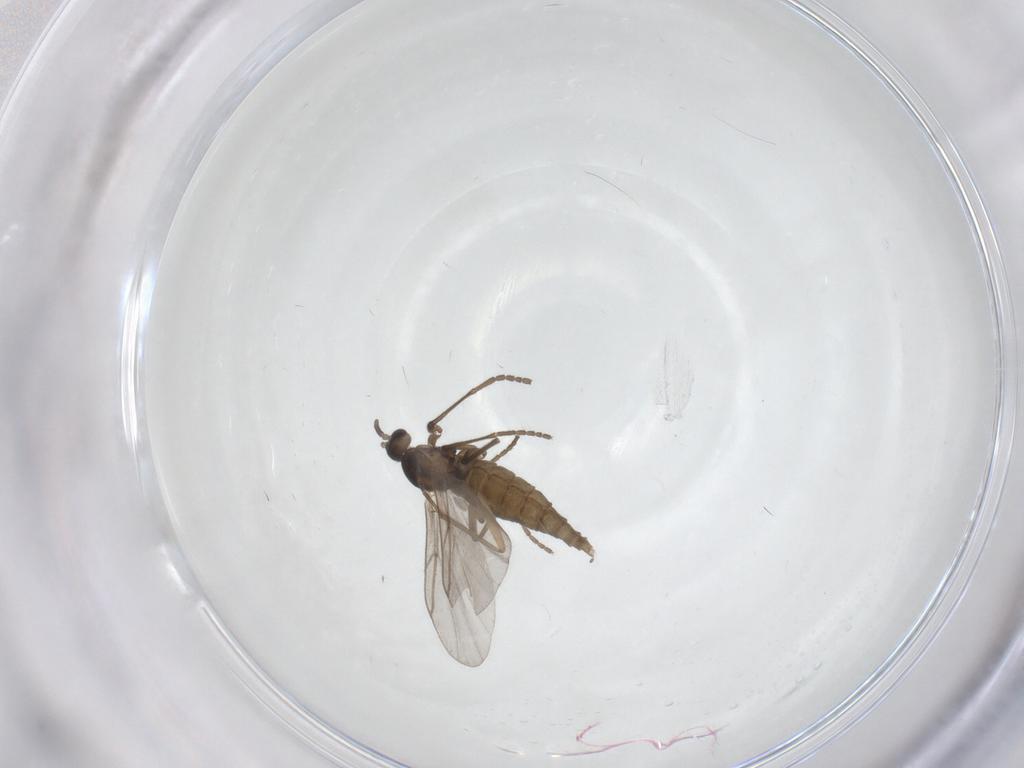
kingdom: Animalia
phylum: Arthropoda
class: Insecta
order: Diptera
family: Cecidomyiidae
